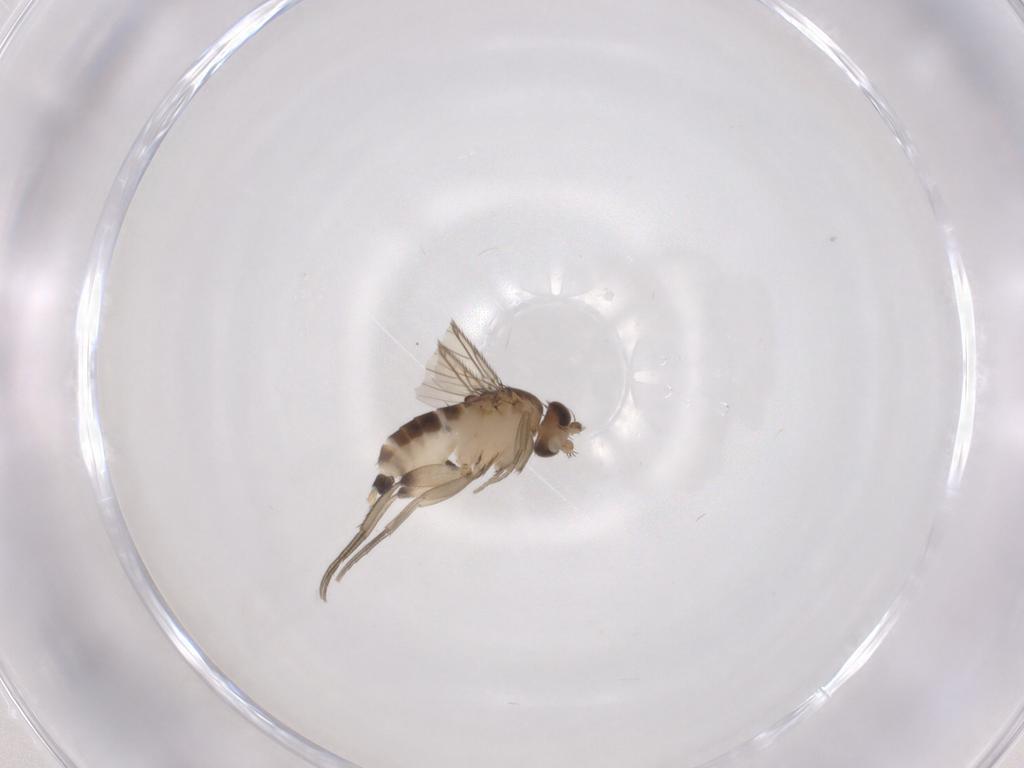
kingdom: Animalia
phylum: Arthropoda
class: Insecta
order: Diptera
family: Phoridae
